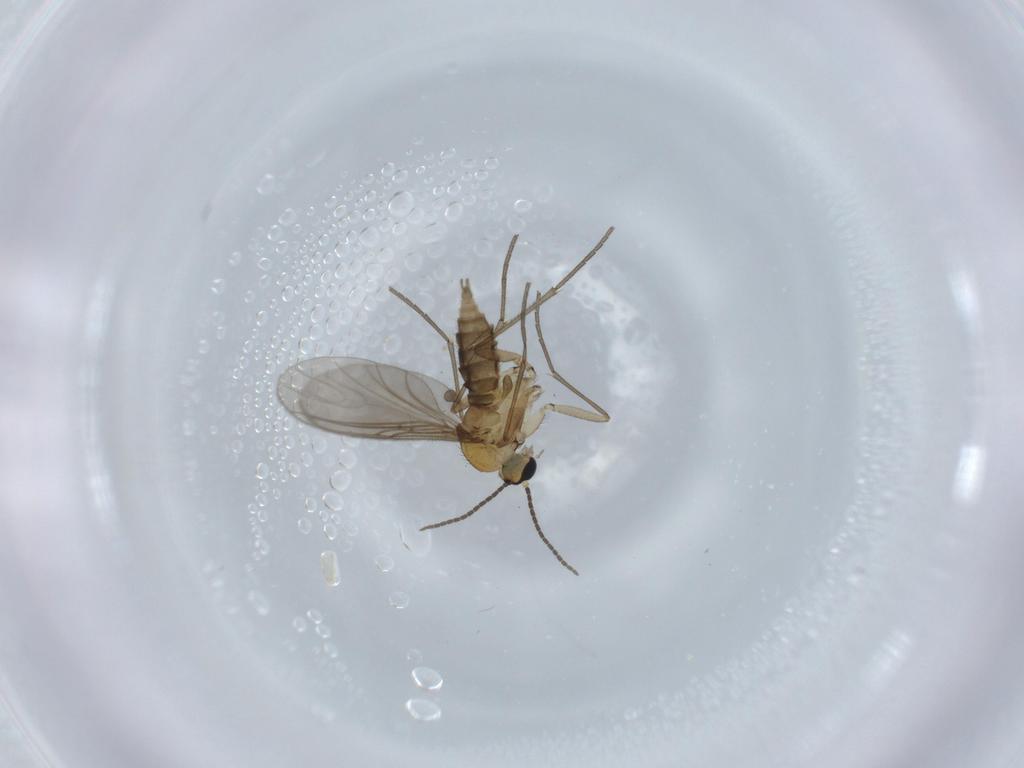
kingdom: Animalia
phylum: Arthropoda
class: Insecta
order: Diptera
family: Sciaridae
